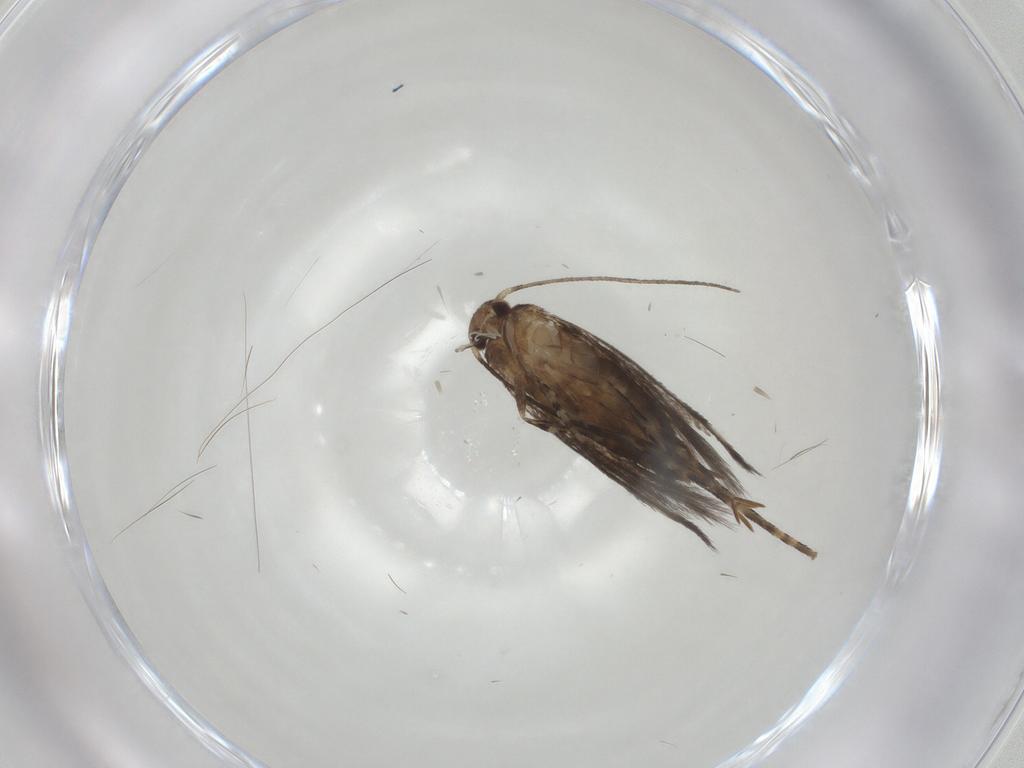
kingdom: Animalia
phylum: Arthropoda
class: Insecta
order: Lepidoptera
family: Elachistidae
